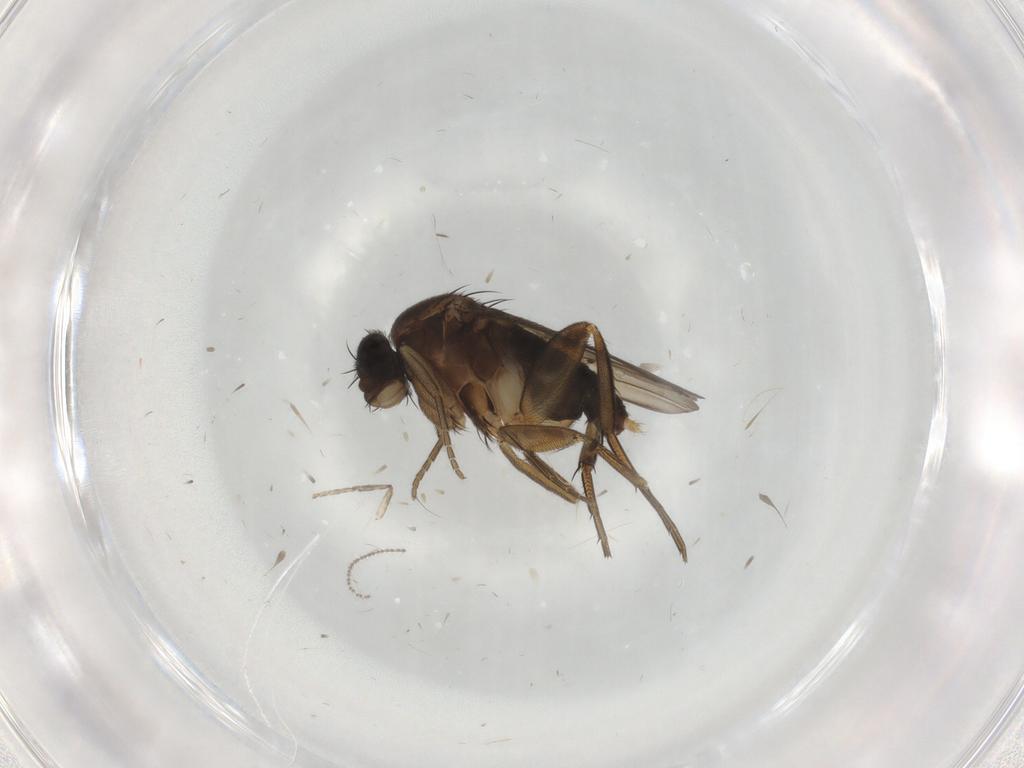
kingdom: Animalia
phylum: Arthropoda
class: Insecta
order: Diptera
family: Phoridae
